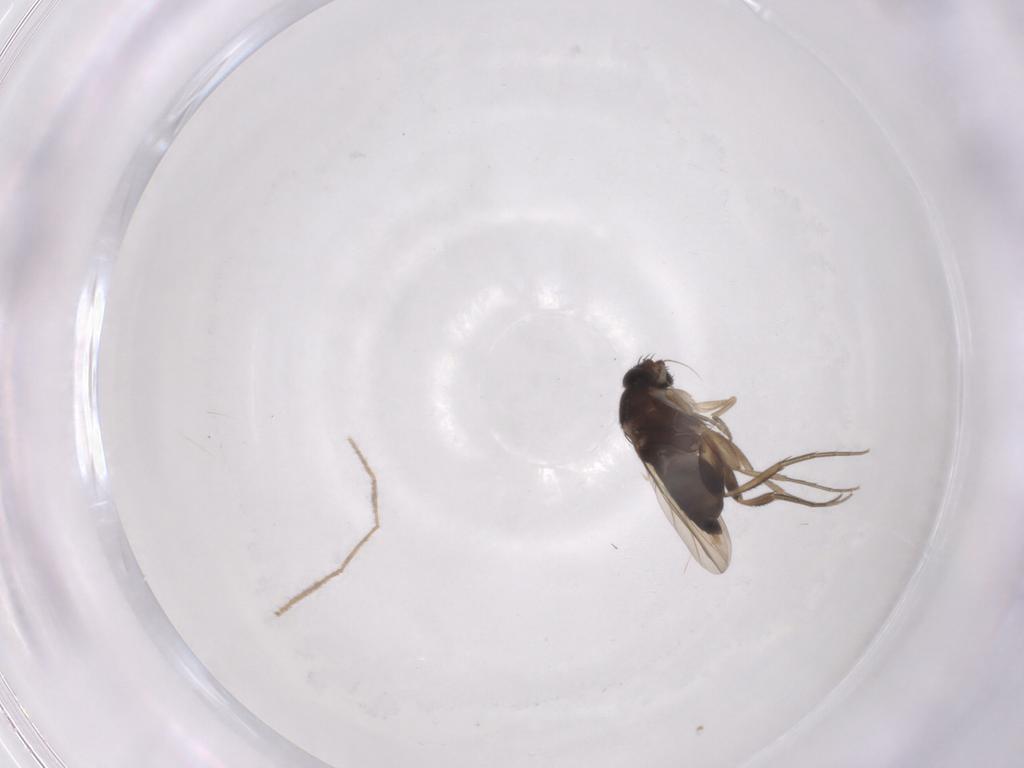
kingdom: Animalia
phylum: Arthropoda
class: Insecta
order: Diptera
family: Phoridae
